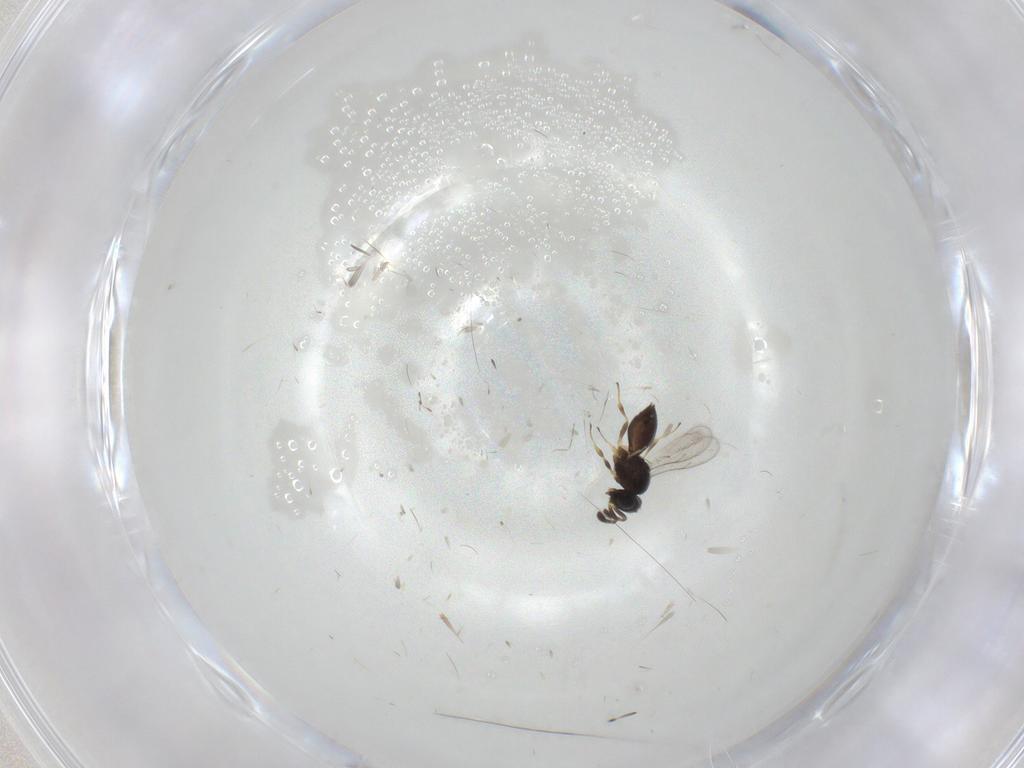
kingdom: Animalia
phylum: Arthropoda
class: Insecta
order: Hymenoptera
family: Scelionidae
